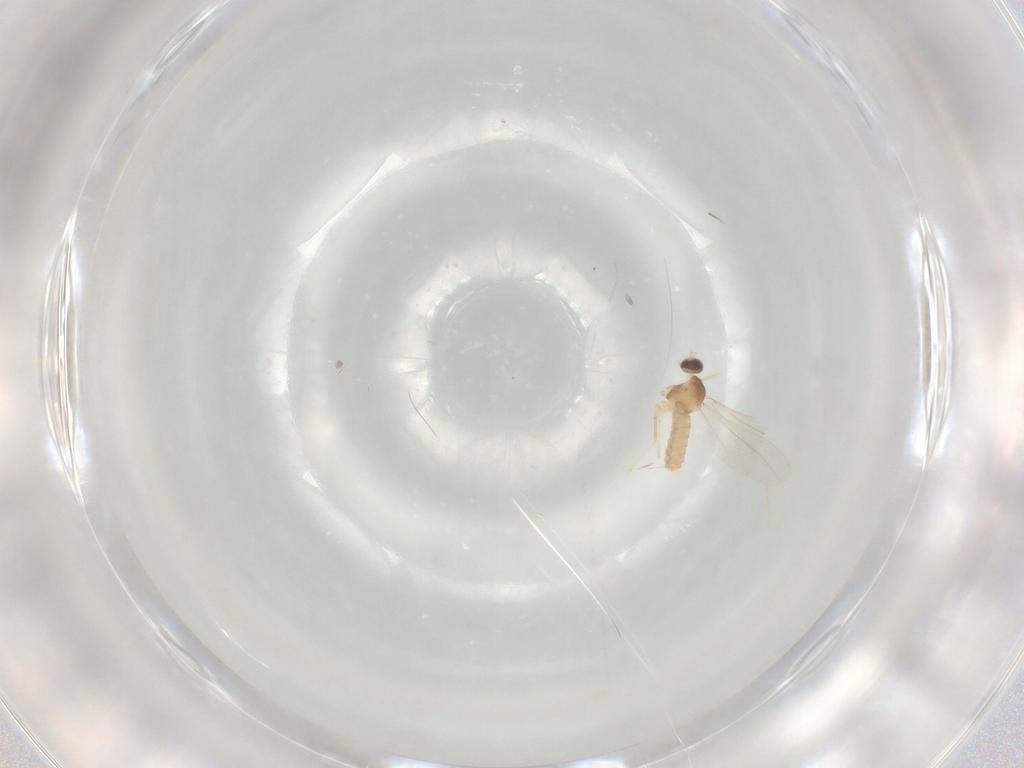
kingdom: Animalia
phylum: Arthropoda
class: Insecta
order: Diptera
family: Cecidomyiidae
